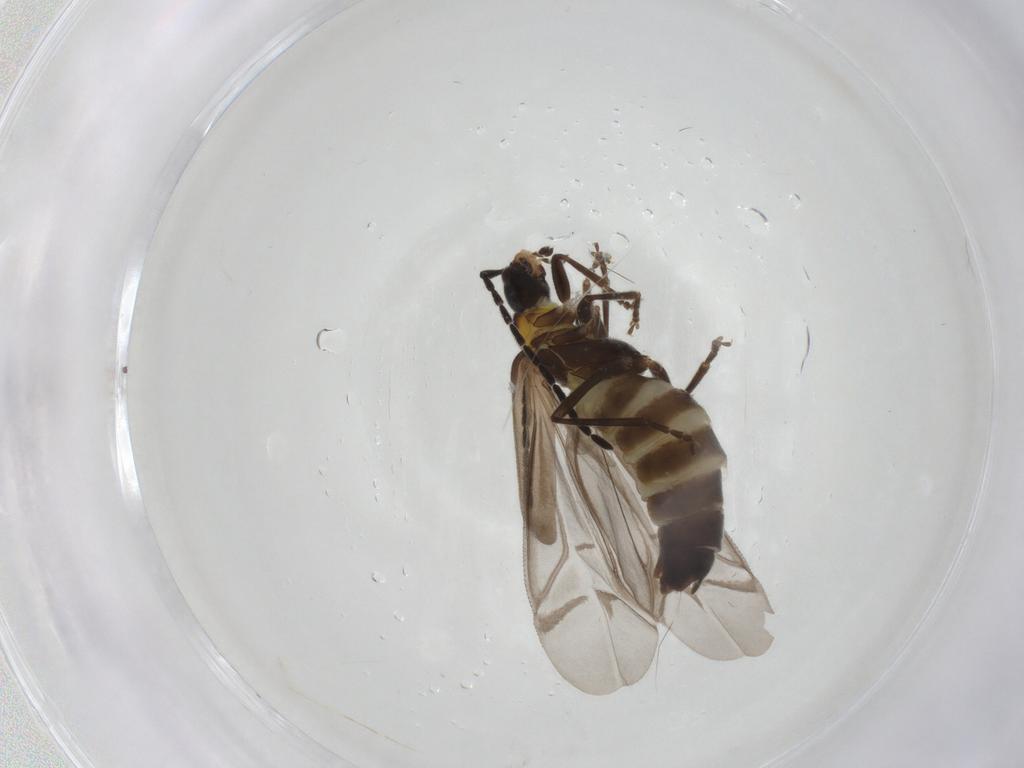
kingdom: Animalia
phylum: Arthropoda
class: Insecta
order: Coleoptera
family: Cantharidae
